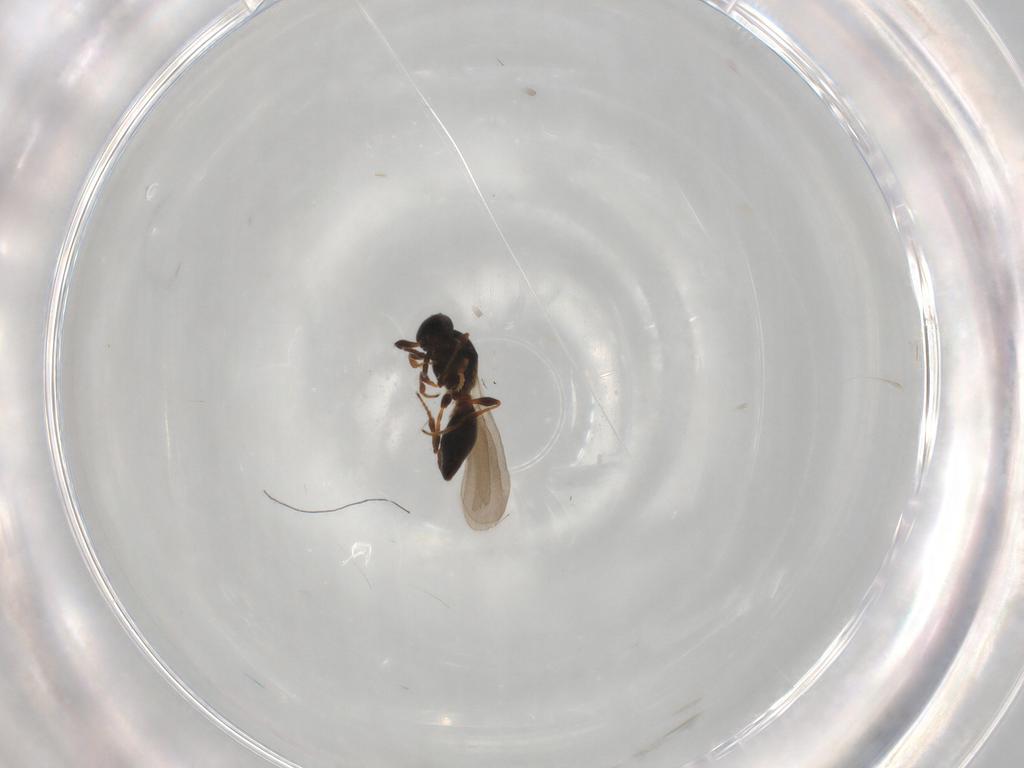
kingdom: Animalia
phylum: Arthropoda
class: Insecta
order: Hymenoptera
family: Platygastridae
